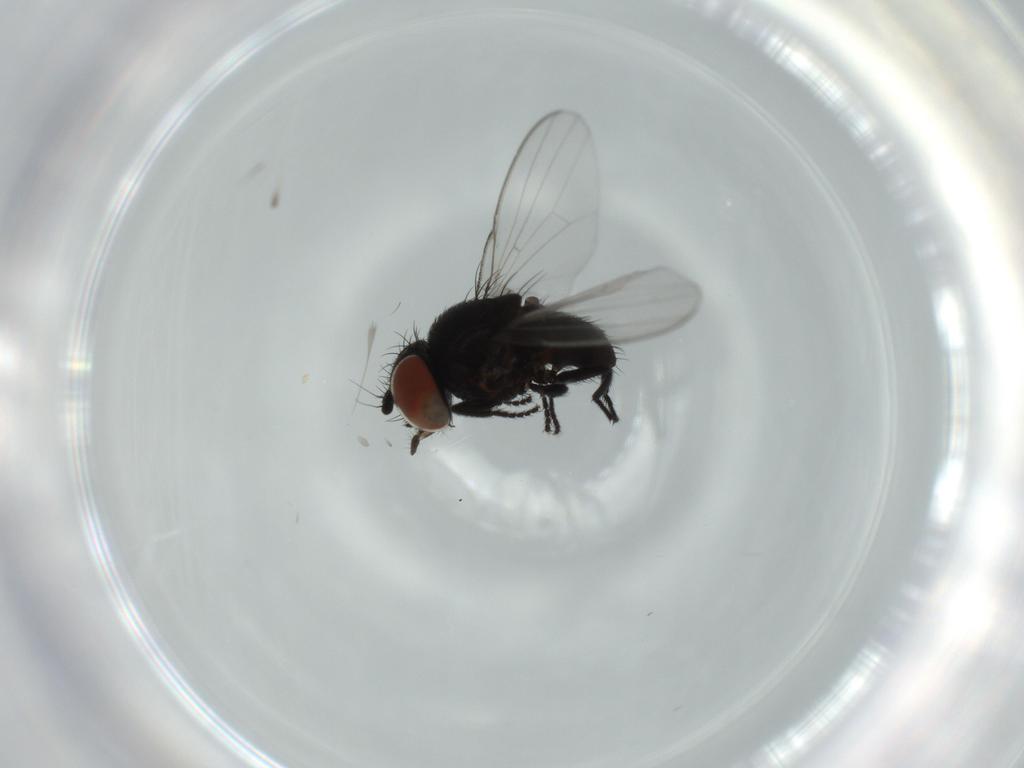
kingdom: Animalia
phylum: Arthropoda
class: Insecta
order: Diptera
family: Milichiidae
